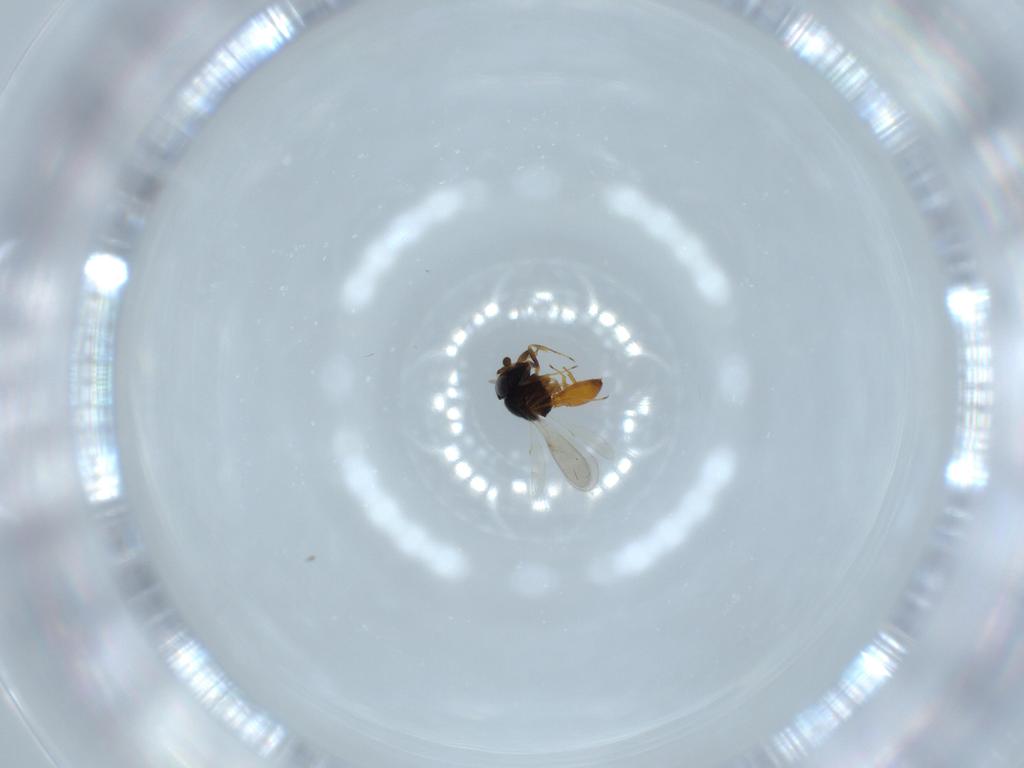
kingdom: Animalia
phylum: Arthropoda
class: Insecta
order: Hymenoptera
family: Scelionidae
